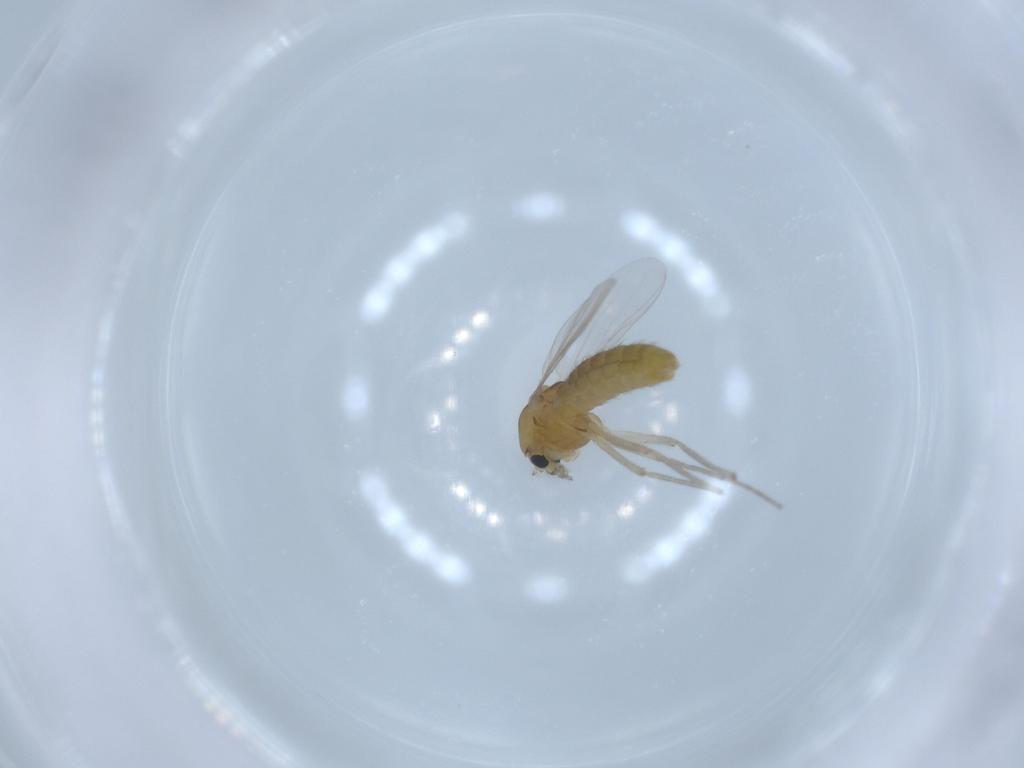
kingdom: Animalia
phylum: Arthropoda
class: Insecta
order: Diptera
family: Chironomidae
